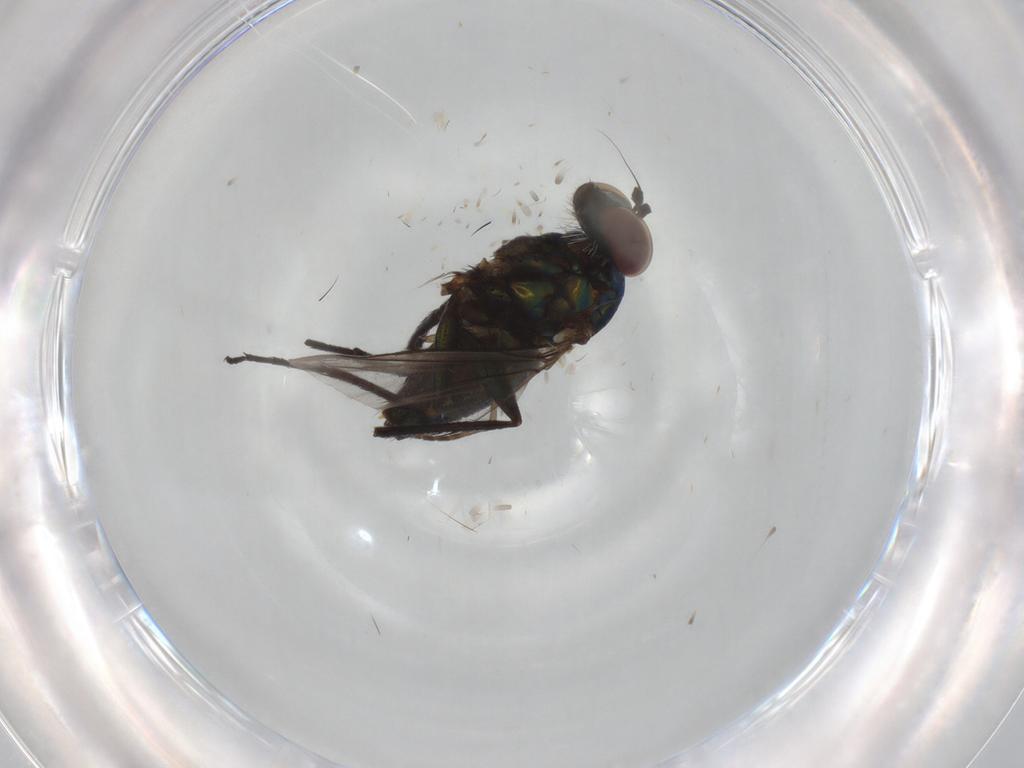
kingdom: Animalia
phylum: Arthropoda
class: Insecta
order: Diptera
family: Dolichopodidae
